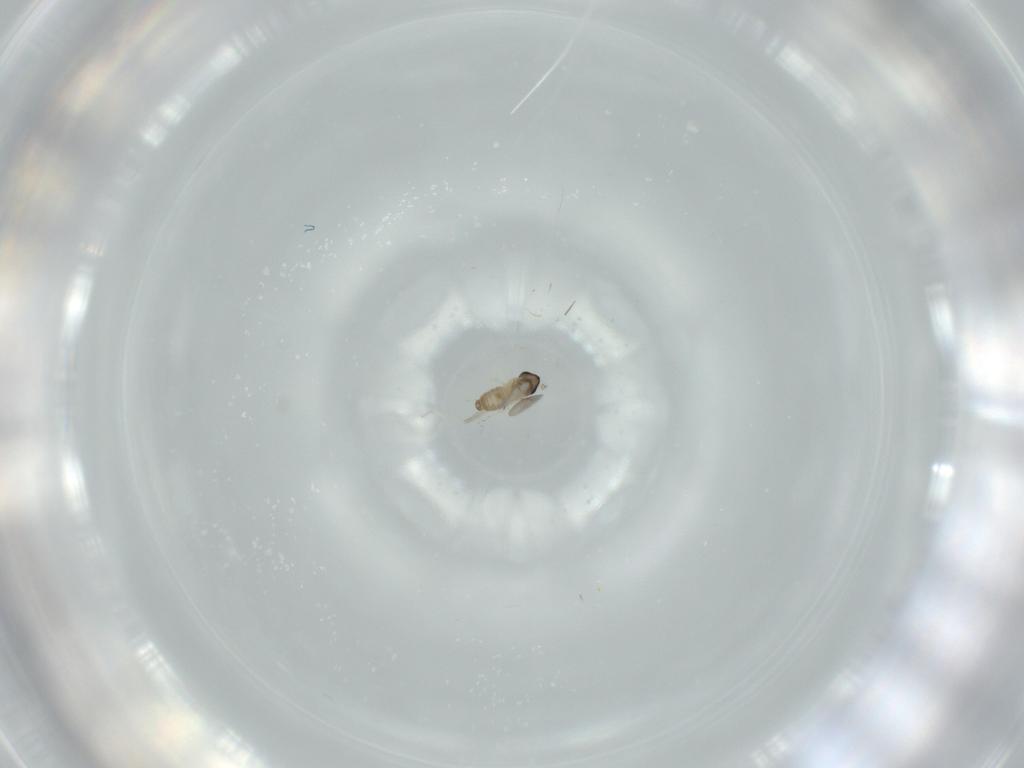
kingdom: Animalia
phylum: Arthropoda
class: Insecta
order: Diptera
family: Cecidomyiidae
